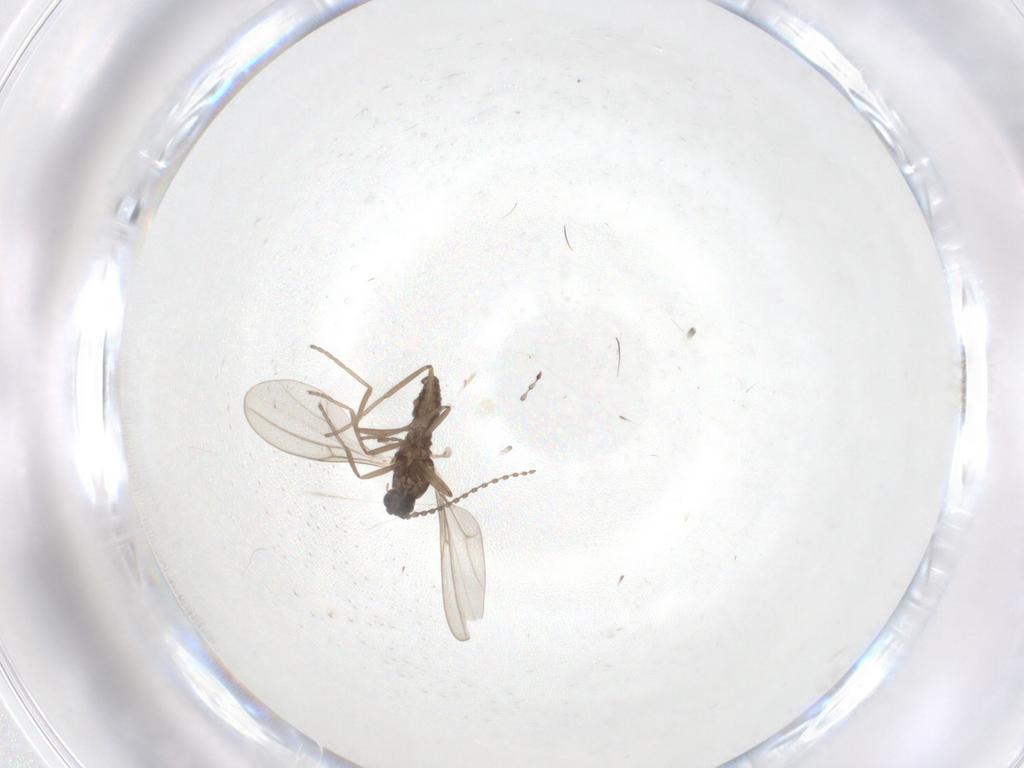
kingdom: Animalia
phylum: Arthropoda
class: Insecta
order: Diptera
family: Cecidomyiidae
